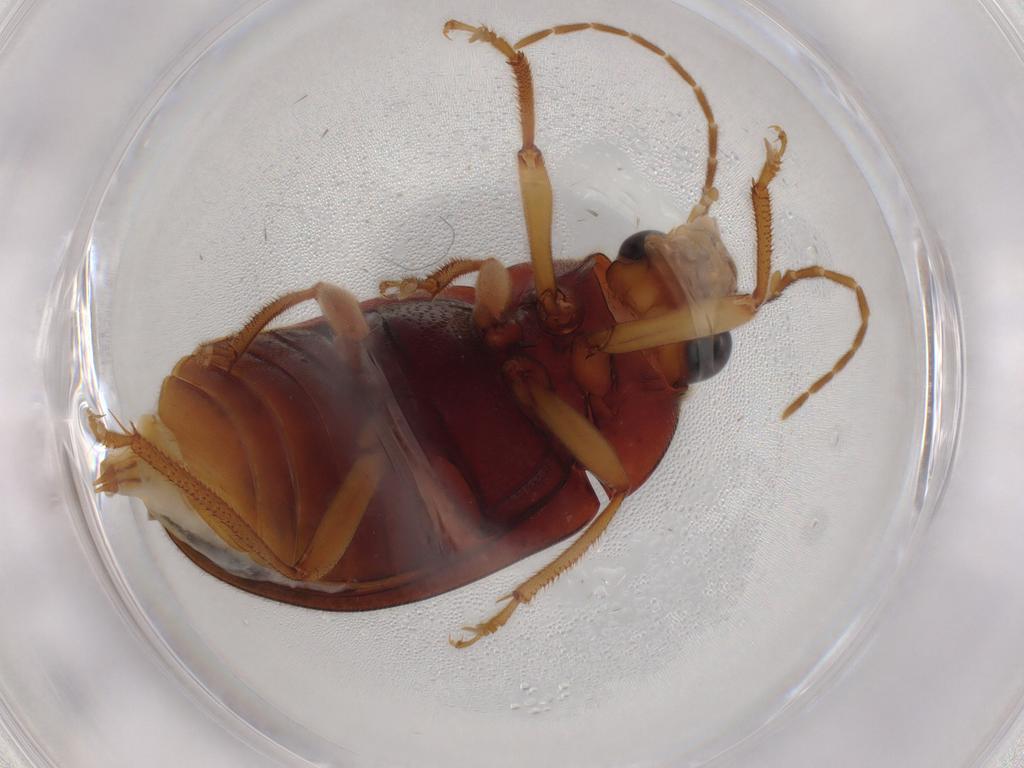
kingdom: Animalia
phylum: Arthropoda
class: Insecta
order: Coleoptera
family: Ptilodactylidae
